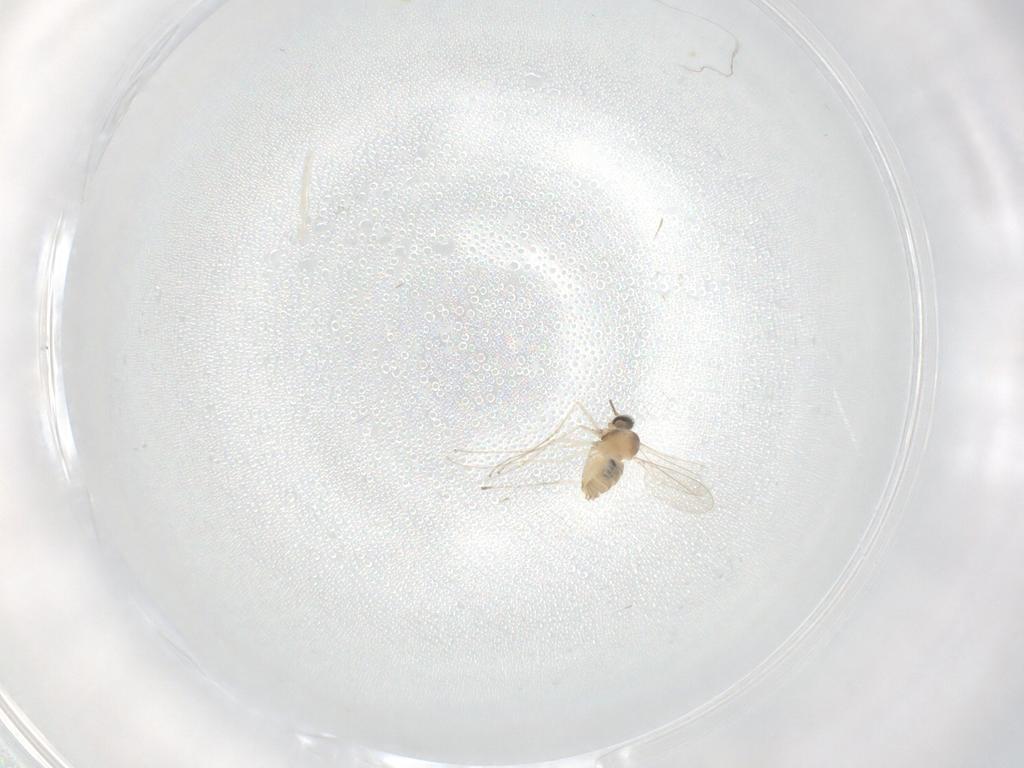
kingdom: Animalia
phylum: Arthropoda
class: Insecta
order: Diptera
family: Cecidomyiidae
